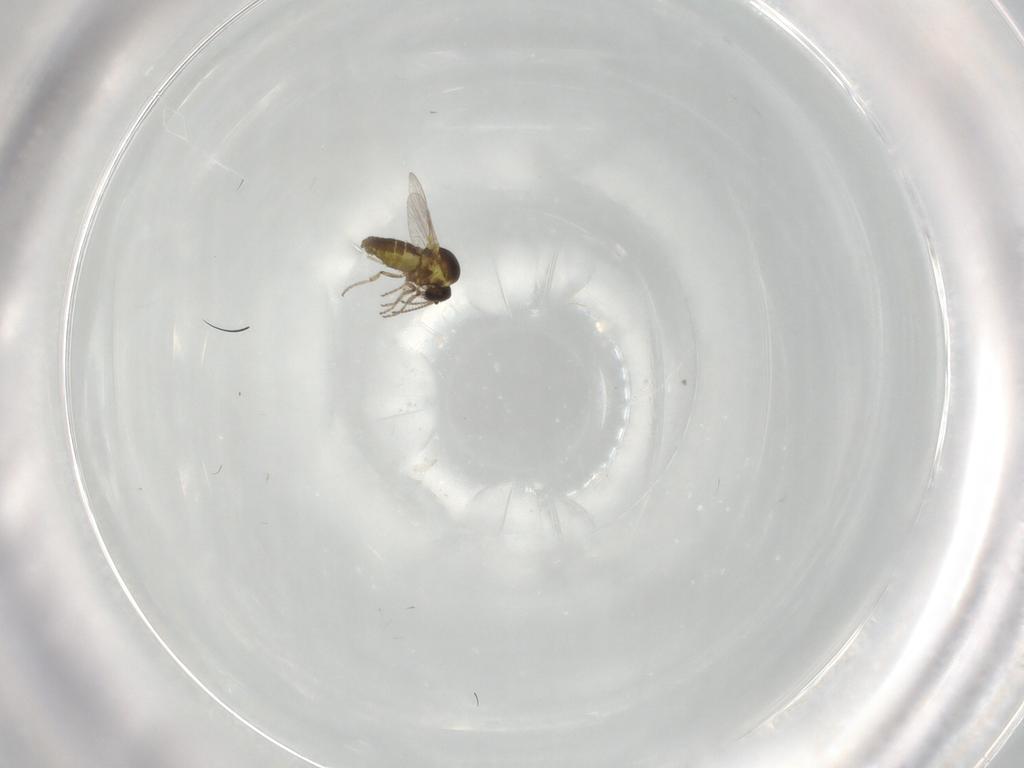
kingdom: Animalia
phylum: Arthropoda
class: Insecta
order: Diptera
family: Ceratopogonidae
